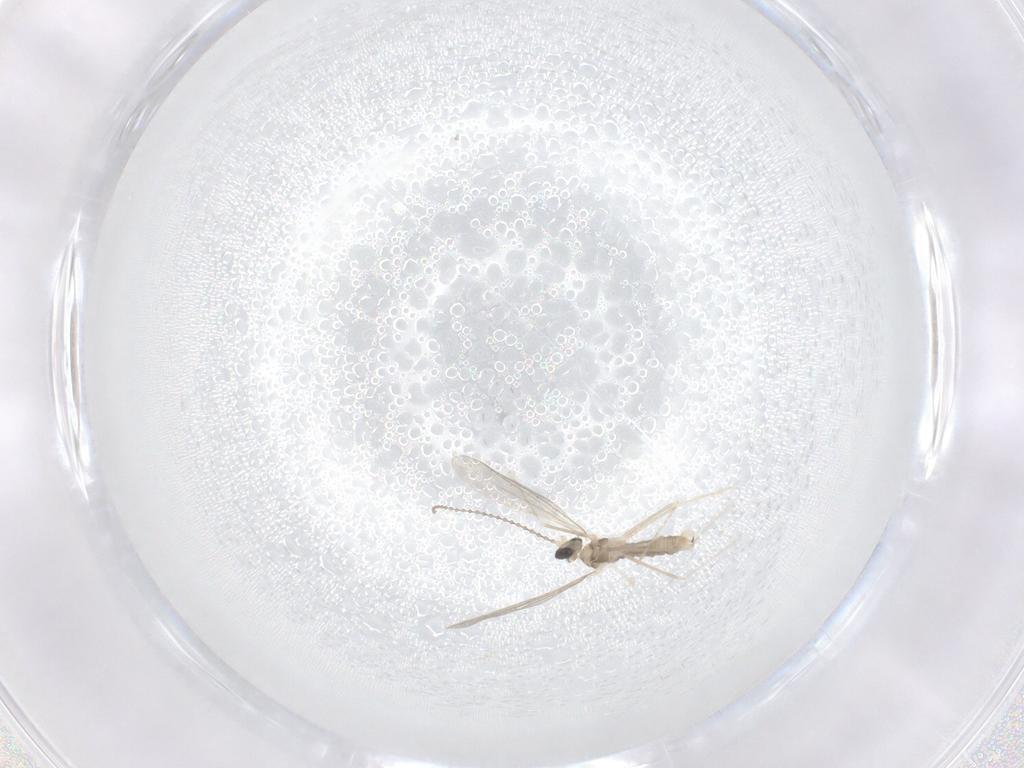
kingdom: Animalia
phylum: Arthropoda
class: Insecta
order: Diptera
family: Cecidomyiidae
